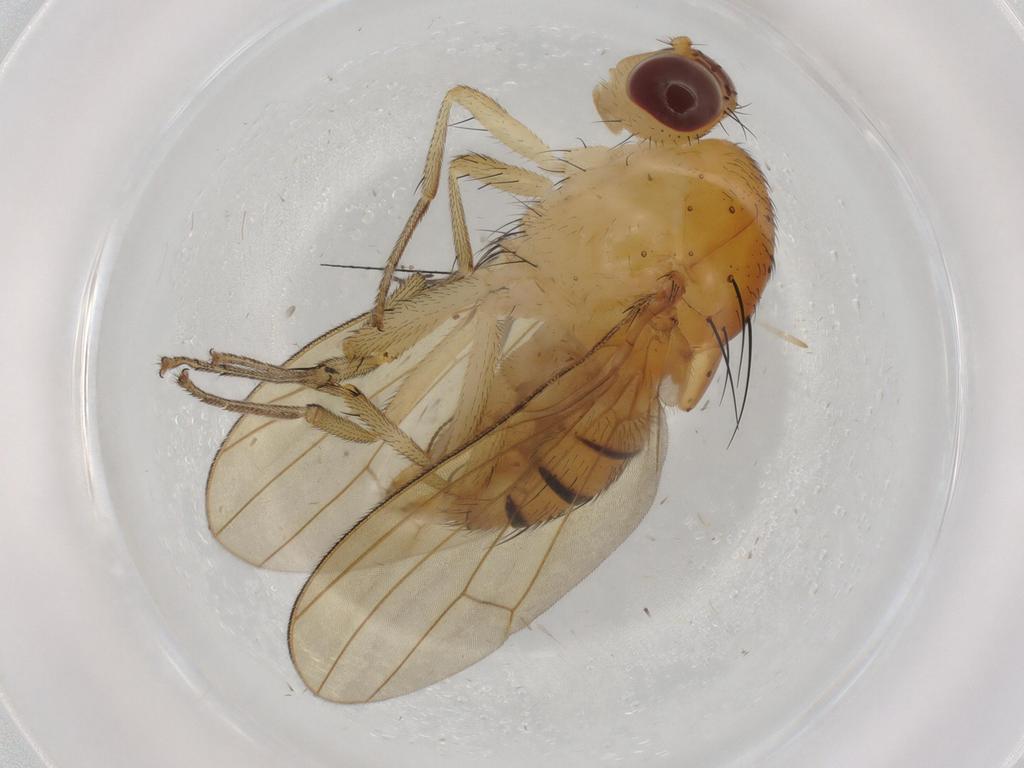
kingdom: Animalia
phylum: Arthropoda
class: Insecta
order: Diptera
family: Sciaridae
